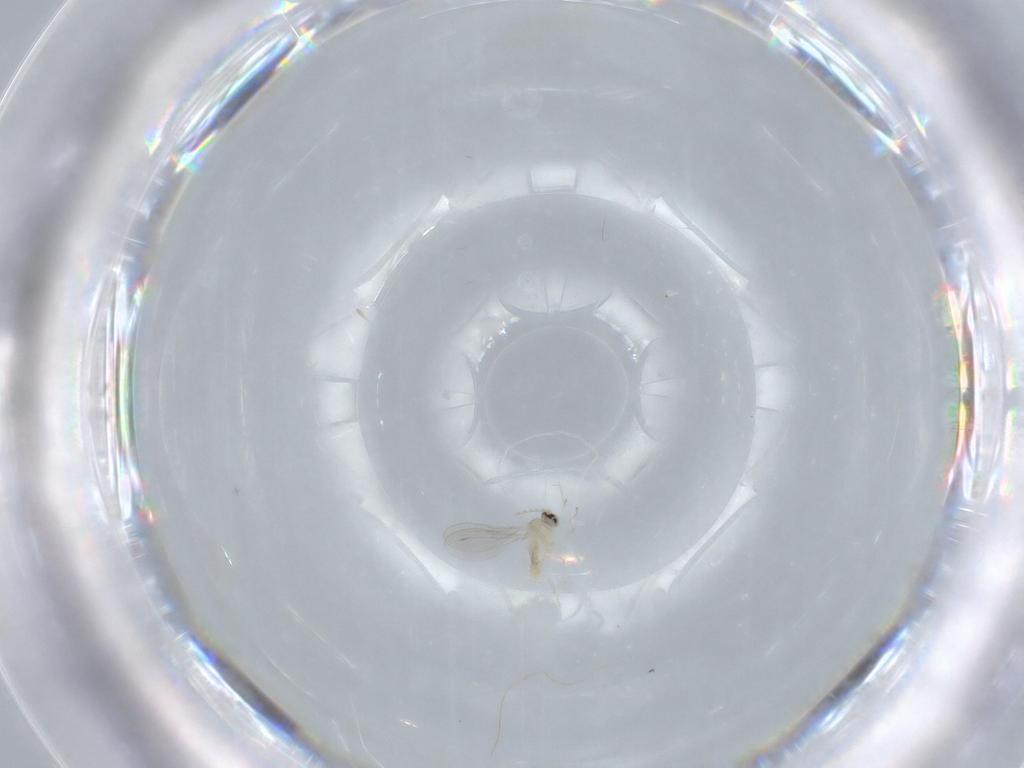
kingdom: Animalia
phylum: Arthropoda
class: Insecta
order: Diptera
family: Cecidomyiidae
